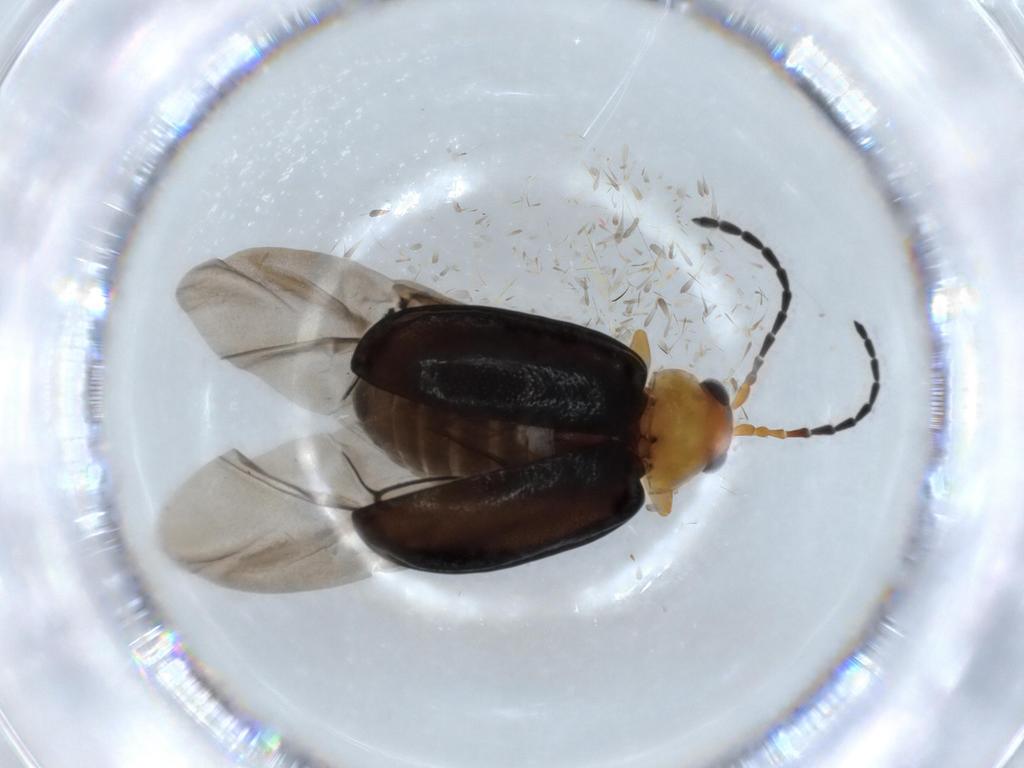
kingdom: Animalia
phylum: Arthropoda
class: Insecta
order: Coleoptera
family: Chrysomelidae
